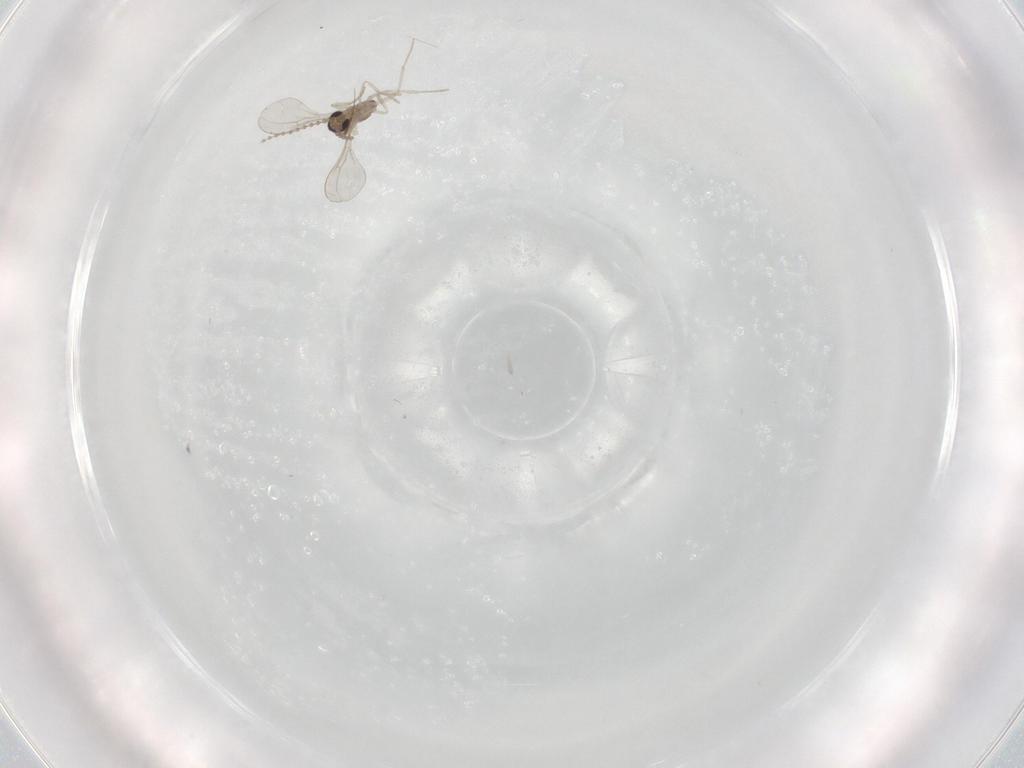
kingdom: Animalia
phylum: Arthropoda
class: Insecta
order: Diptera
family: Cecidomyiidae
